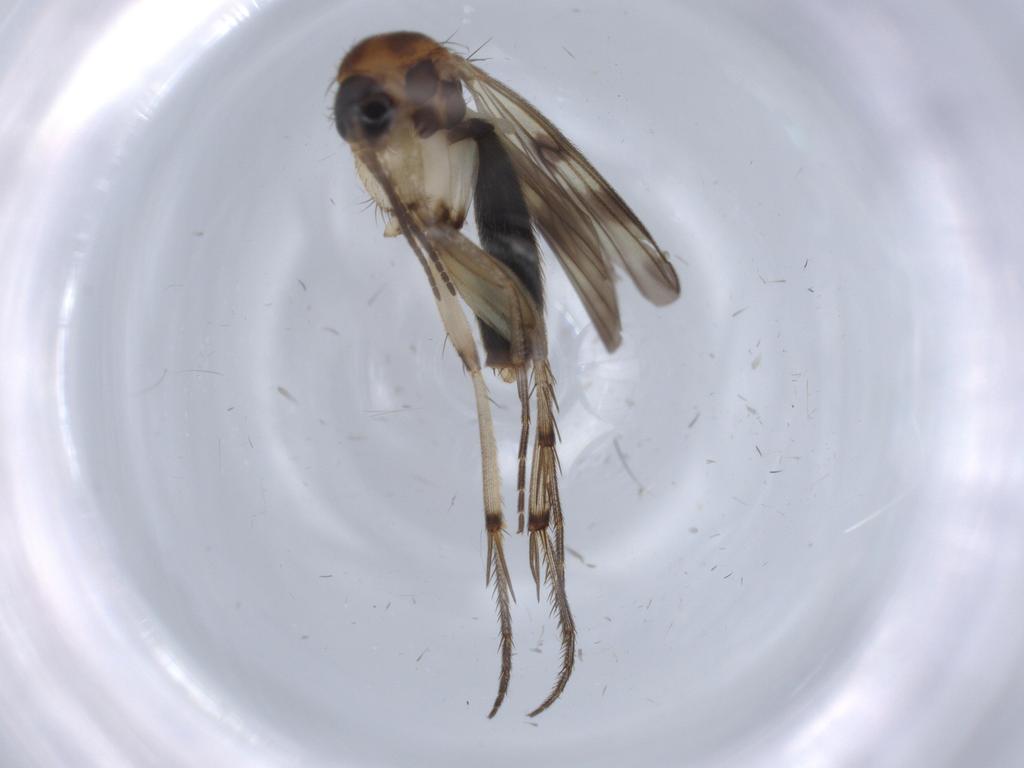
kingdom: Animalia
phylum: Arthropoda
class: Insecta
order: Diptera
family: Mycetophilidae
